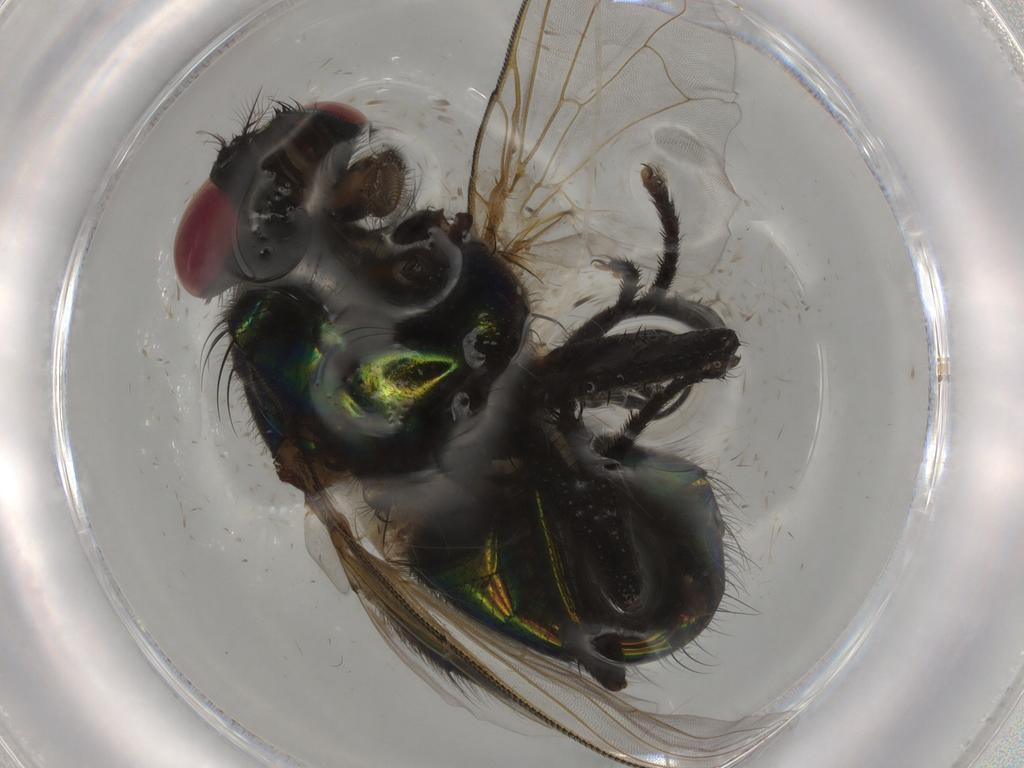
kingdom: Animalia
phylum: Arthropoda
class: Insecta
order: Diptera
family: Muscidae
